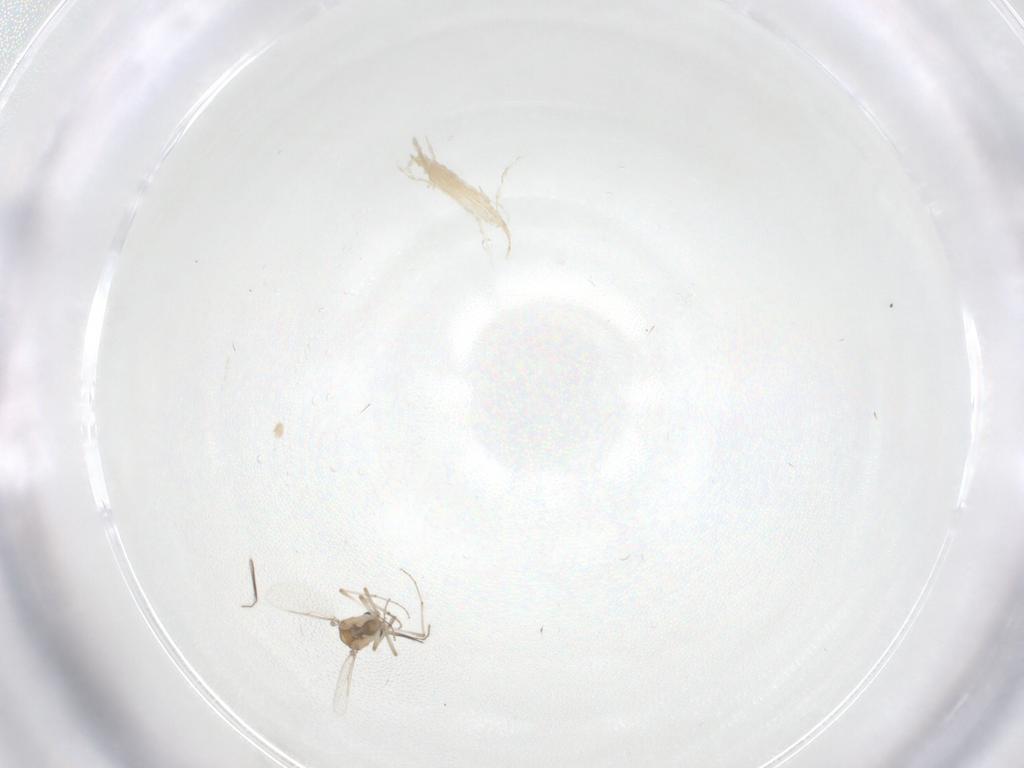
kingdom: Animalia
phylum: Arthropoda
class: Insecta
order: Diptera
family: Ceratopogonidae
